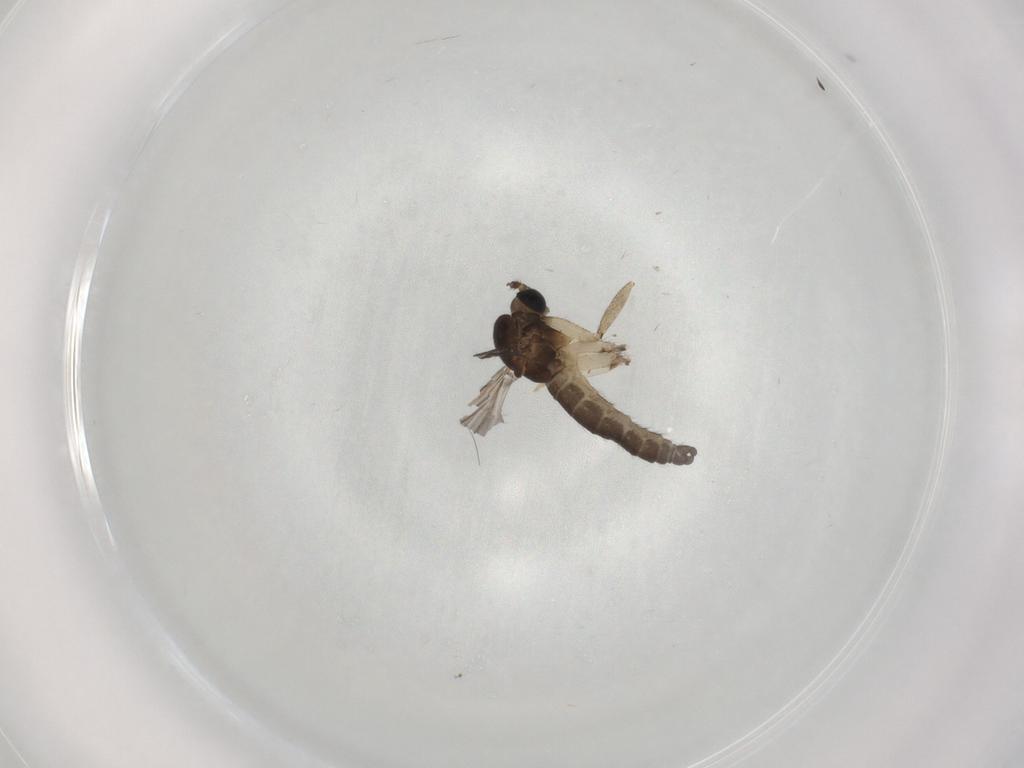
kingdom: Animalia
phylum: Arthropoda
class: Insecta
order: Diptera
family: Sciaridae
